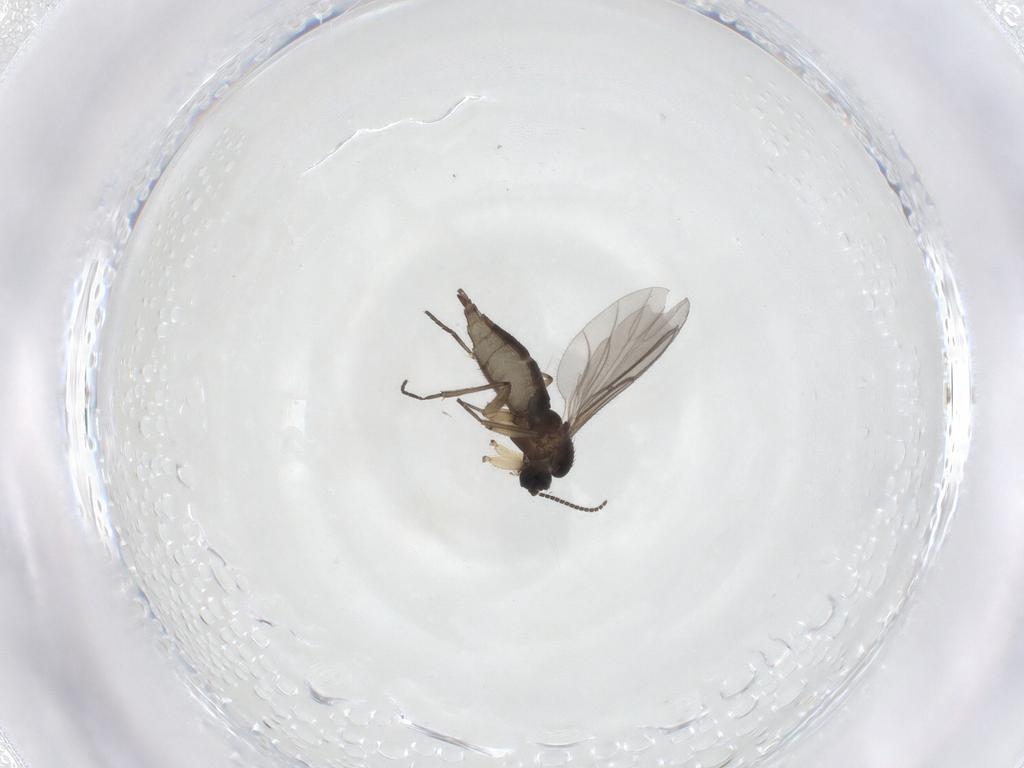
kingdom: Animalia
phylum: Arthropoda
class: Insecta
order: Diptera
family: Sciaridae
